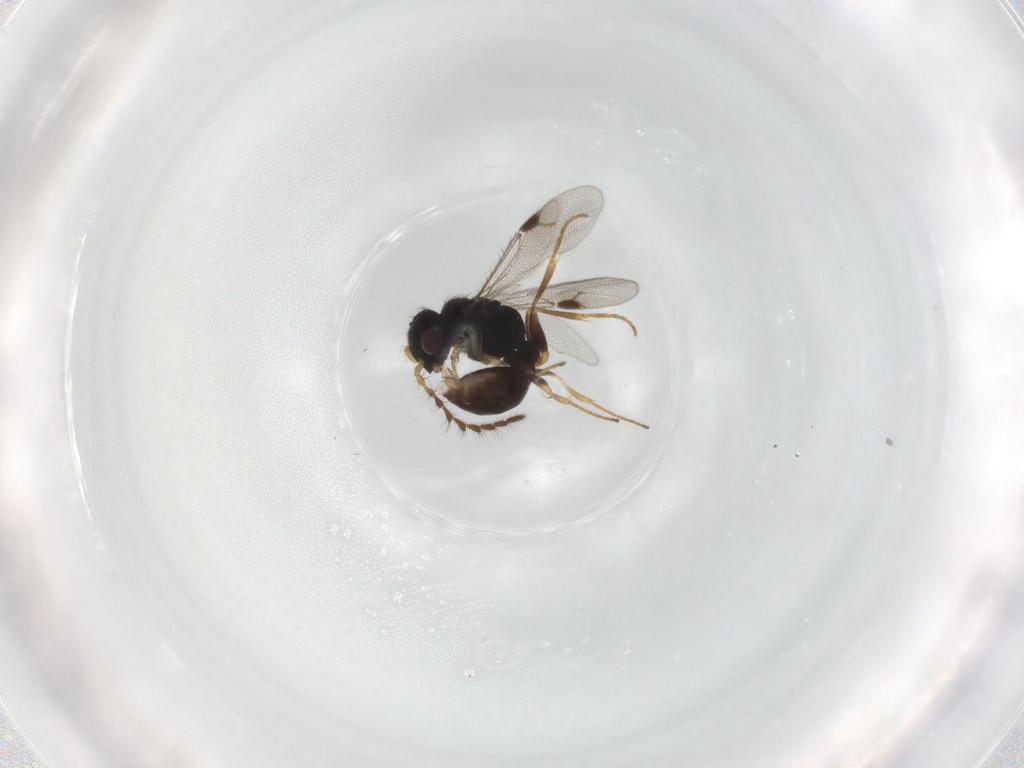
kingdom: Animalia
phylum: Arthropoda
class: Insecta
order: Hymenoptera
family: Dryinidae
